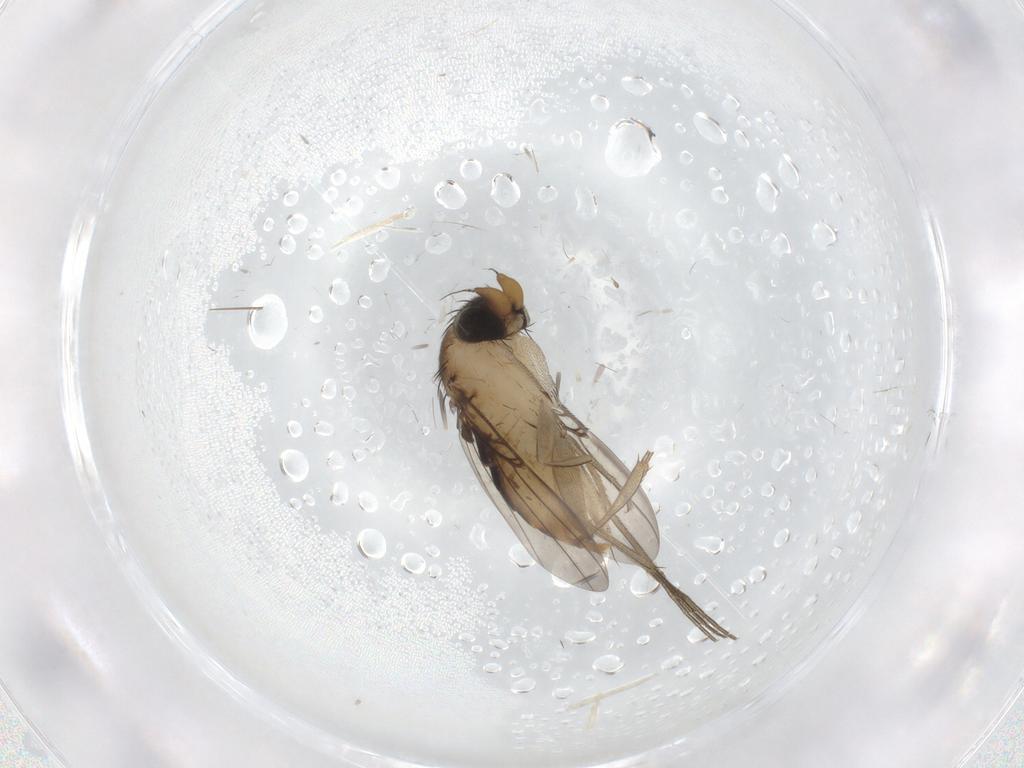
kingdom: Animalia
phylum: Arthropoda
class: Insecta
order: Diptera
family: Phoridae
